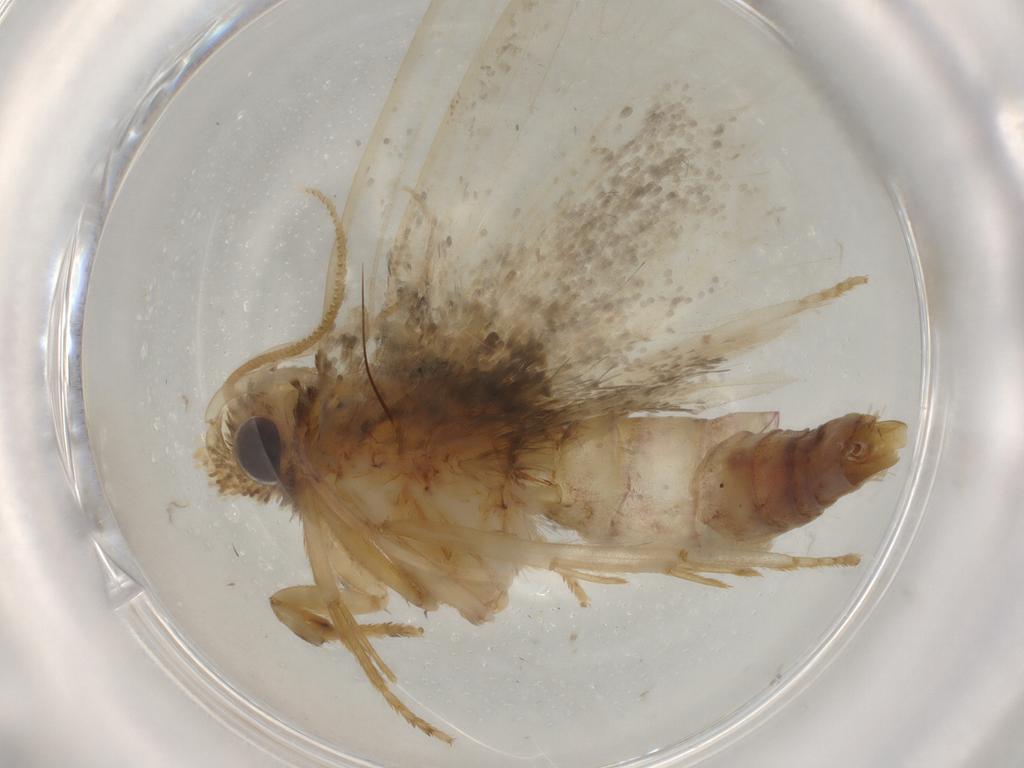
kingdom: Animalia
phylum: Arthropoda
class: Insecta
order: Lepidoptera
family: Tineidae
